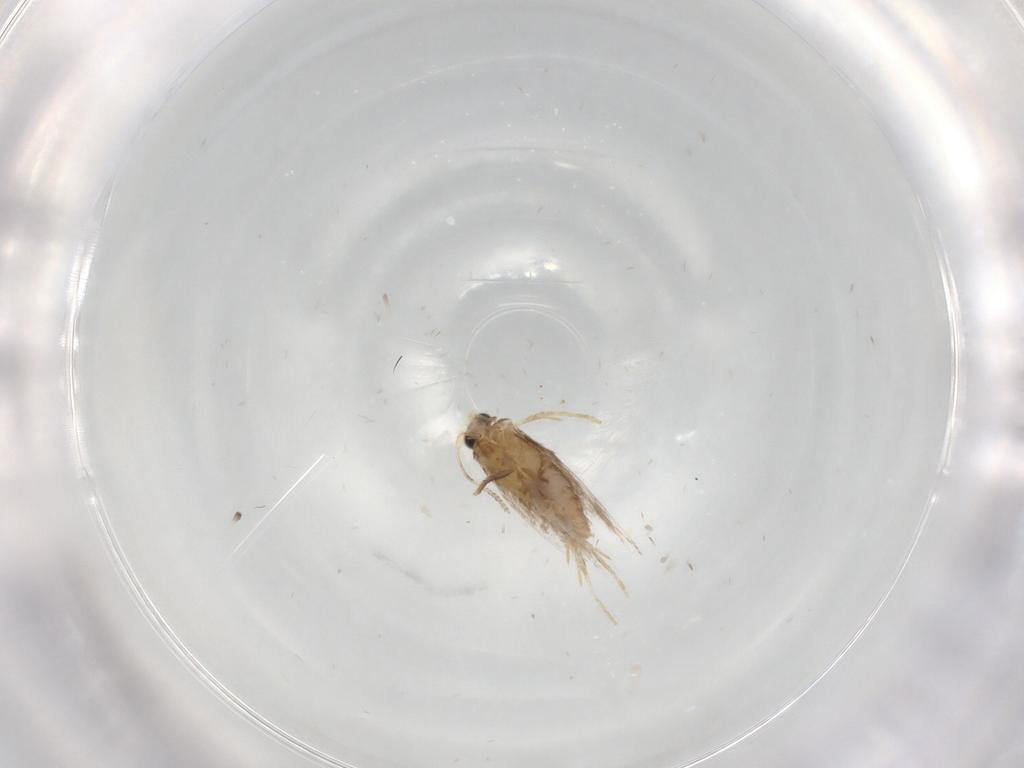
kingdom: Animalia
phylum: Arthropoda
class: Insecta
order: Lepidoptera
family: Nepticulidae
